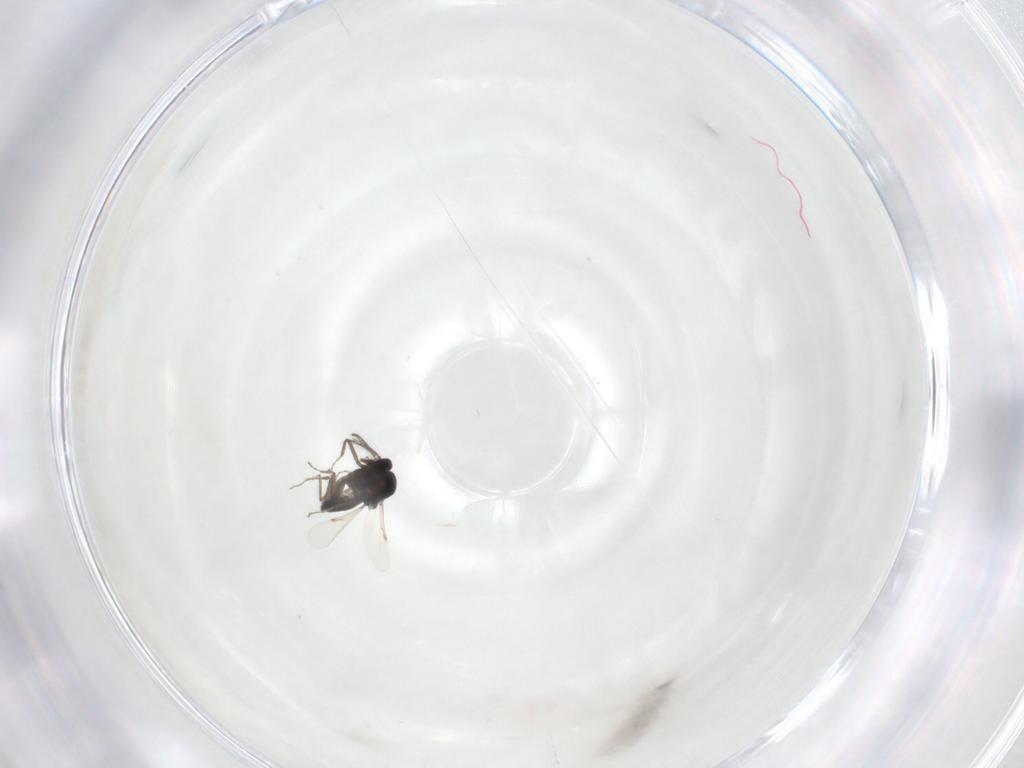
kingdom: Animalia
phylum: Arthropoda
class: Insecta
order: Diptera
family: Ceratopogonidae
